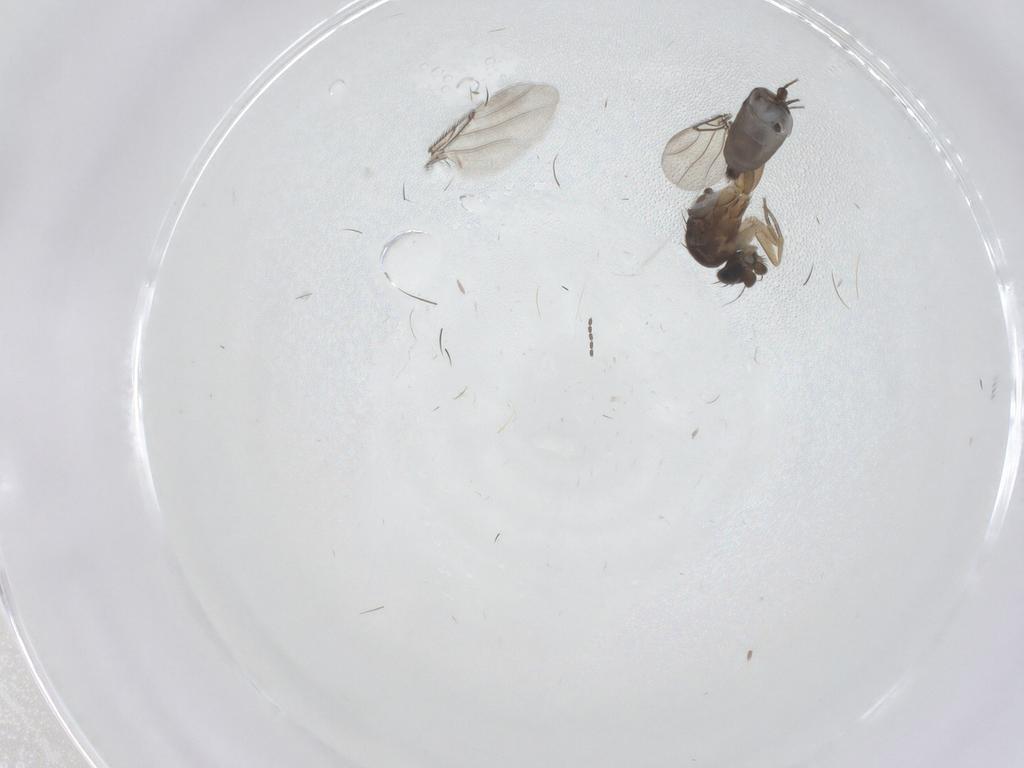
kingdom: Animalia
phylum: Arthropoda
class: Insecta
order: Diptera
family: Phoridae
